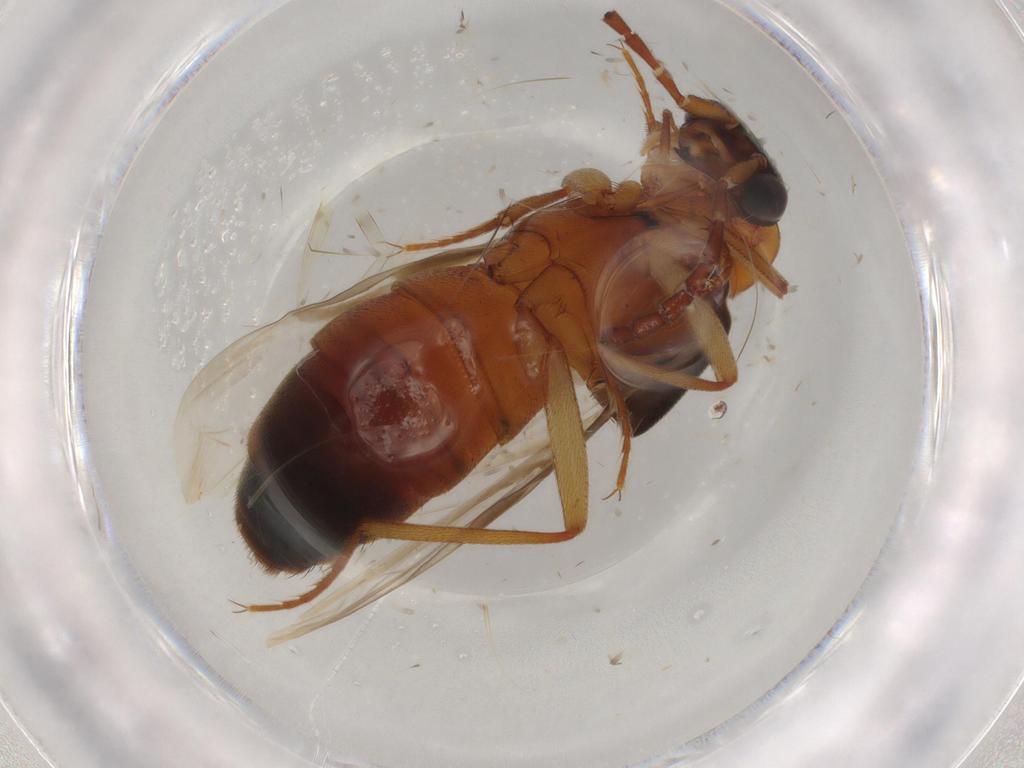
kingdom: Animalia
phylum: Arthropoda
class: Insecta
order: Coleoptera
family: Staphylinidae
